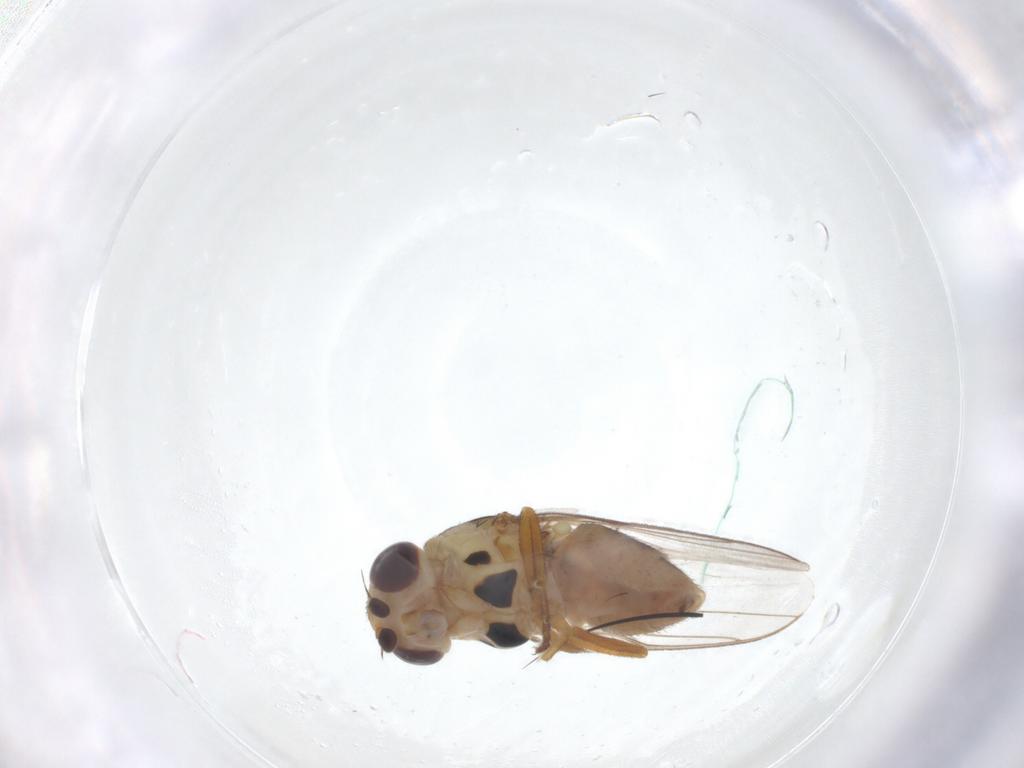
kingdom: Animalia
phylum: Arthropoda
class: Insecta
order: Diptera
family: Chloropidae
